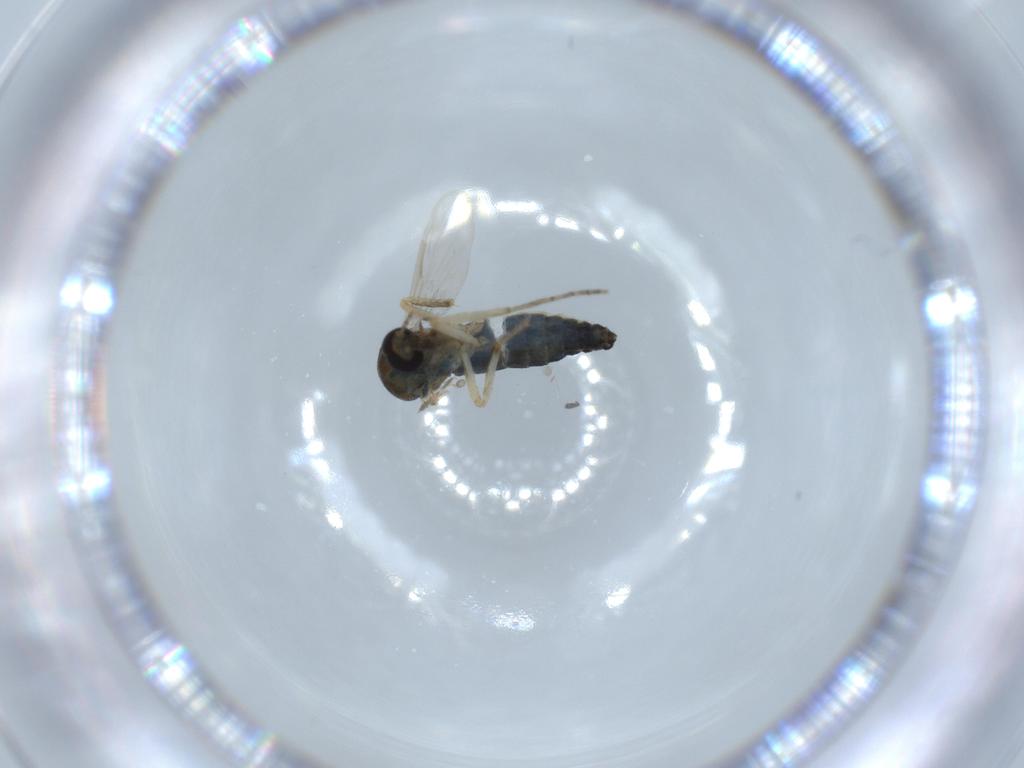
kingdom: Animalia
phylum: Arthropoda
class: Insecta
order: Diptera
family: Ceratopogonidae
